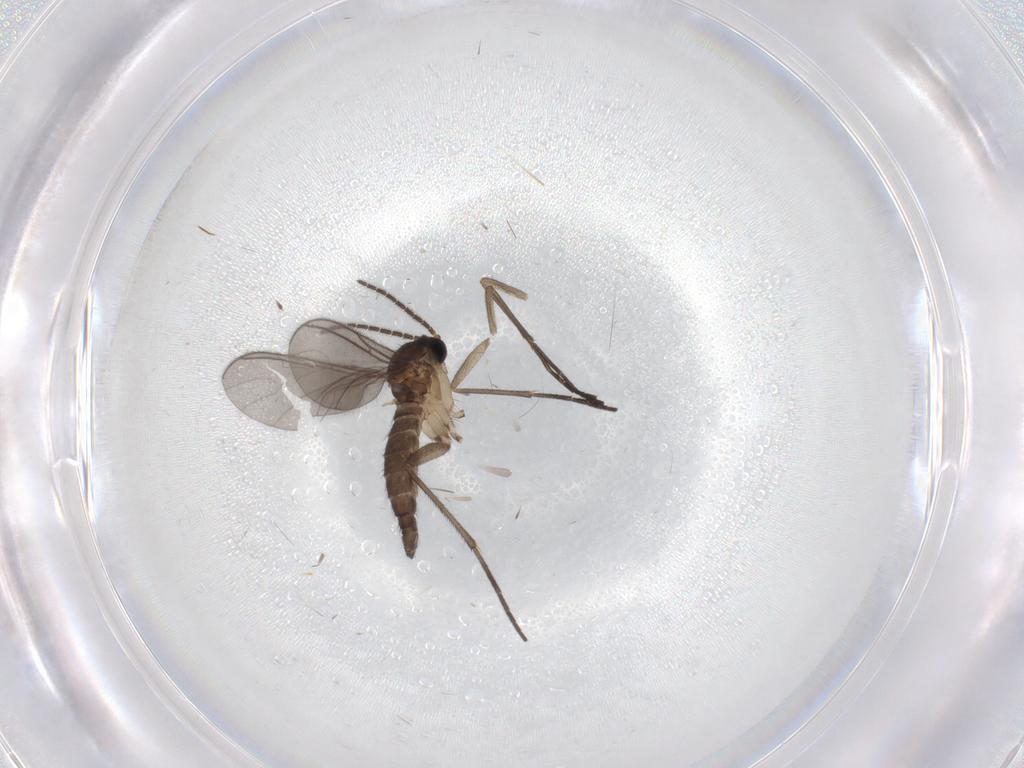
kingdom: Animalia
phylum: Arthropoda
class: Insecta
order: Diptera
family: Sciaridae
